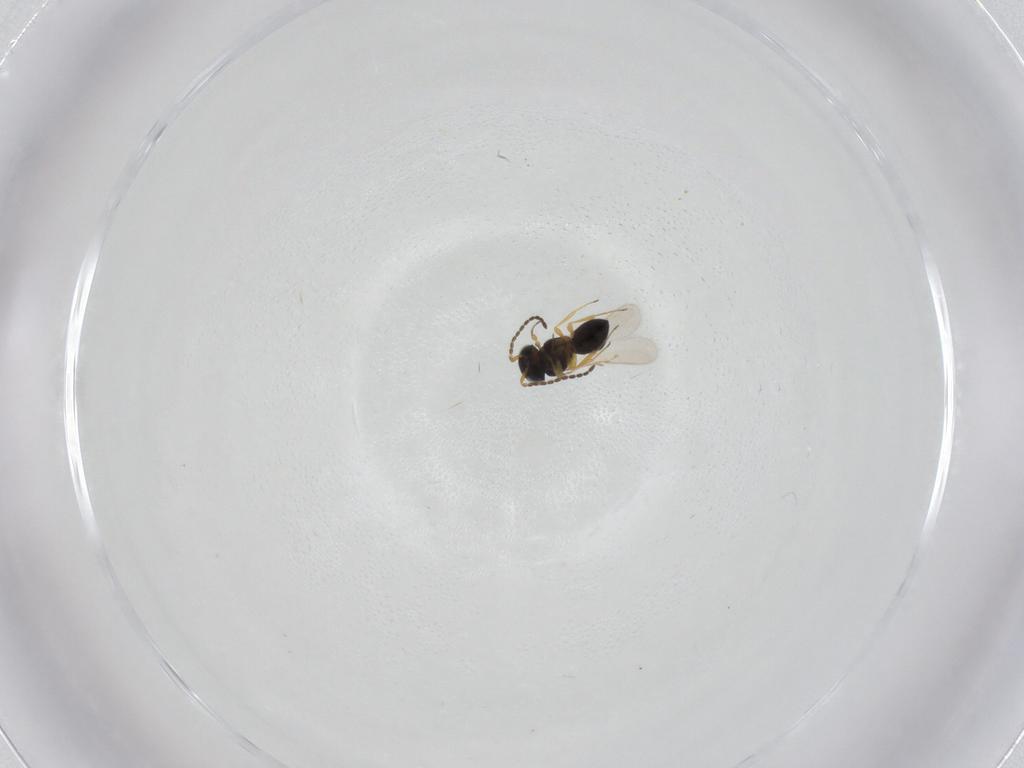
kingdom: Animalia
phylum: Arthropoda
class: Insecta
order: Hymenoptera
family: Scelionidae
